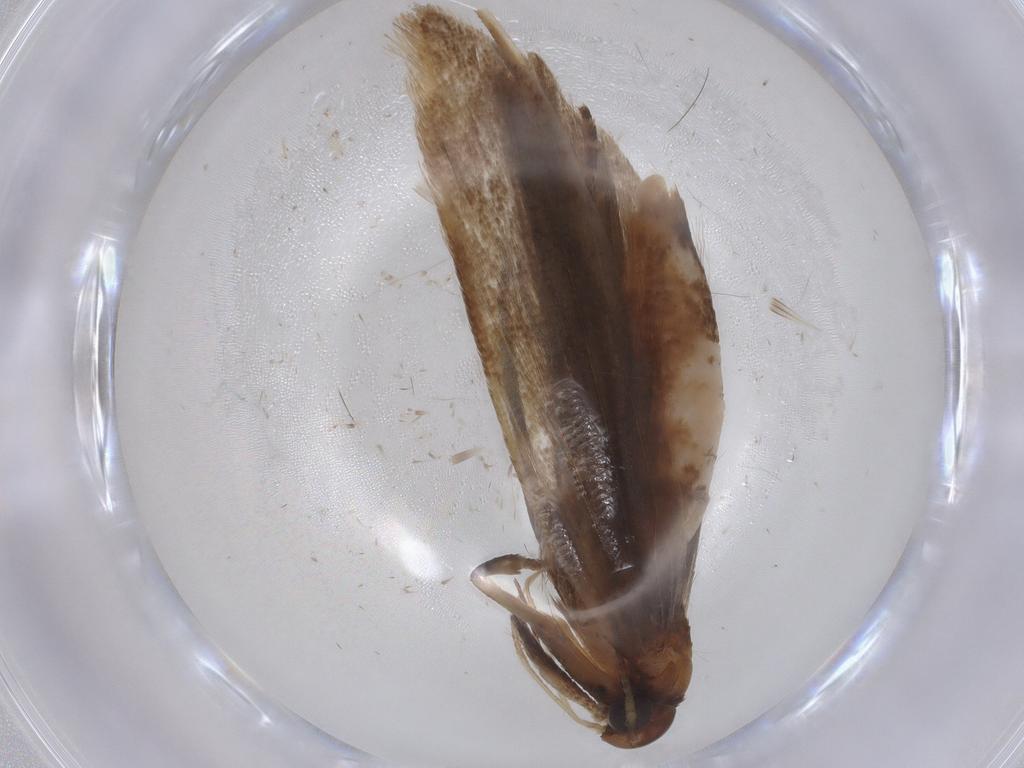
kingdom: Animalia
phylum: Arthropoda
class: Insecta
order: Lepidoptera
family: Gelechiidae
